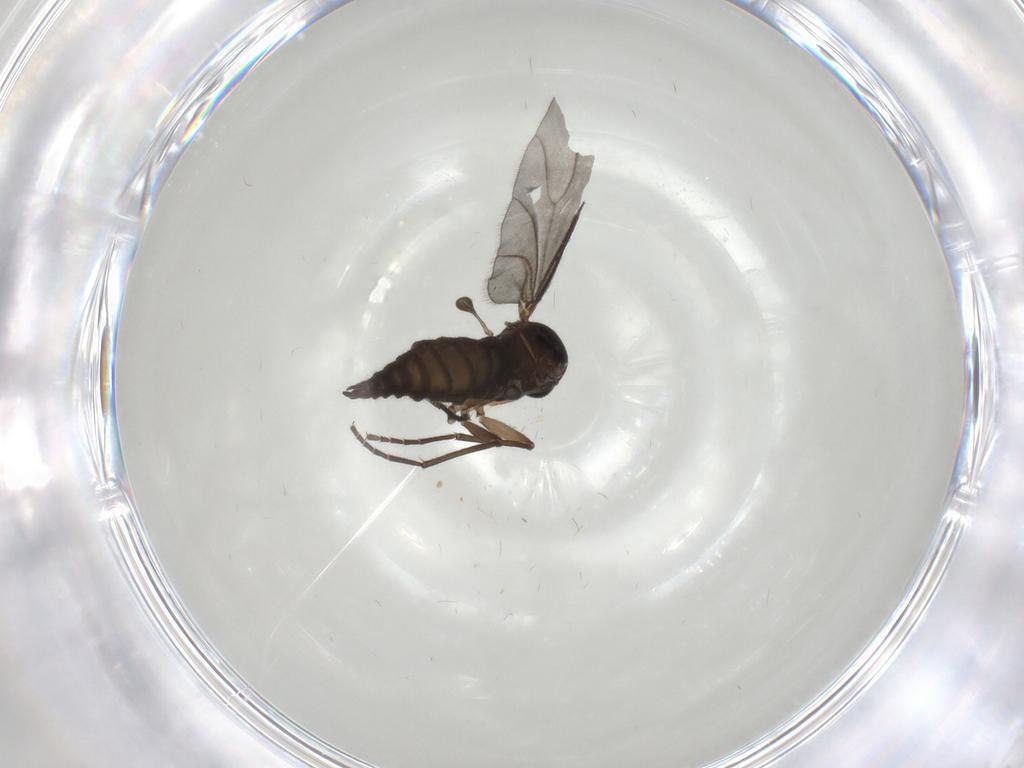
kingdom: Animalia
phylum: Arthropoda
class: Insecta
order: Diptera
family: Sciaridae
